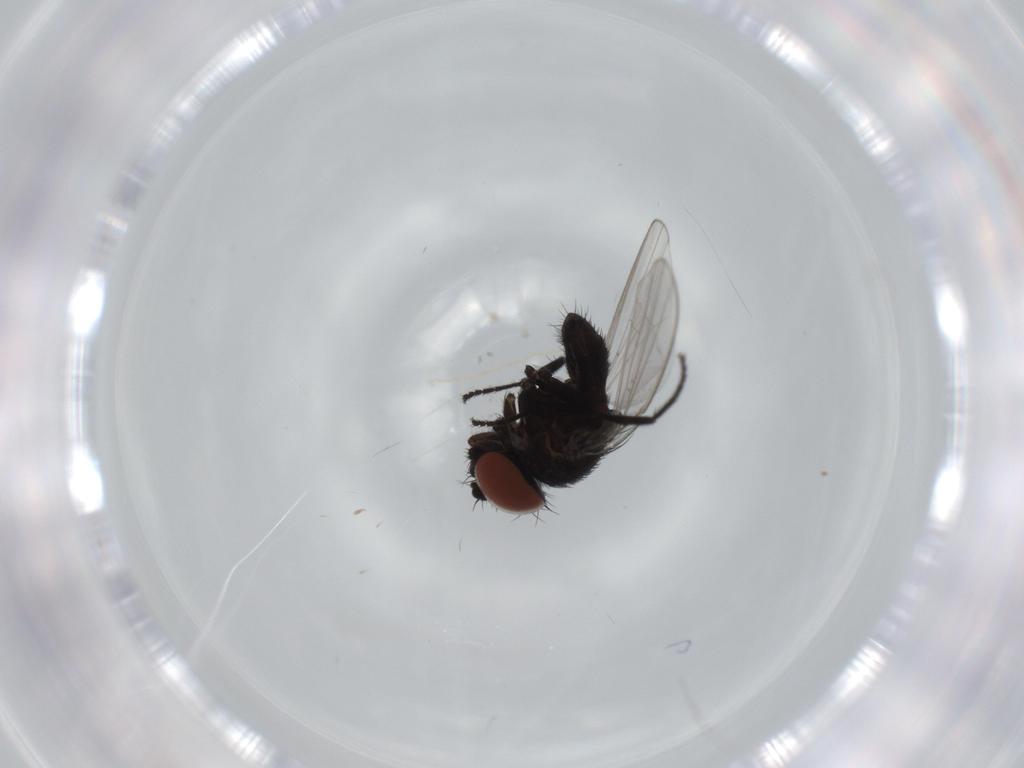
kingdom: Animalia
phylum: Arthropoda
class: Insecta
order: Diptera
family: Milichiidae
